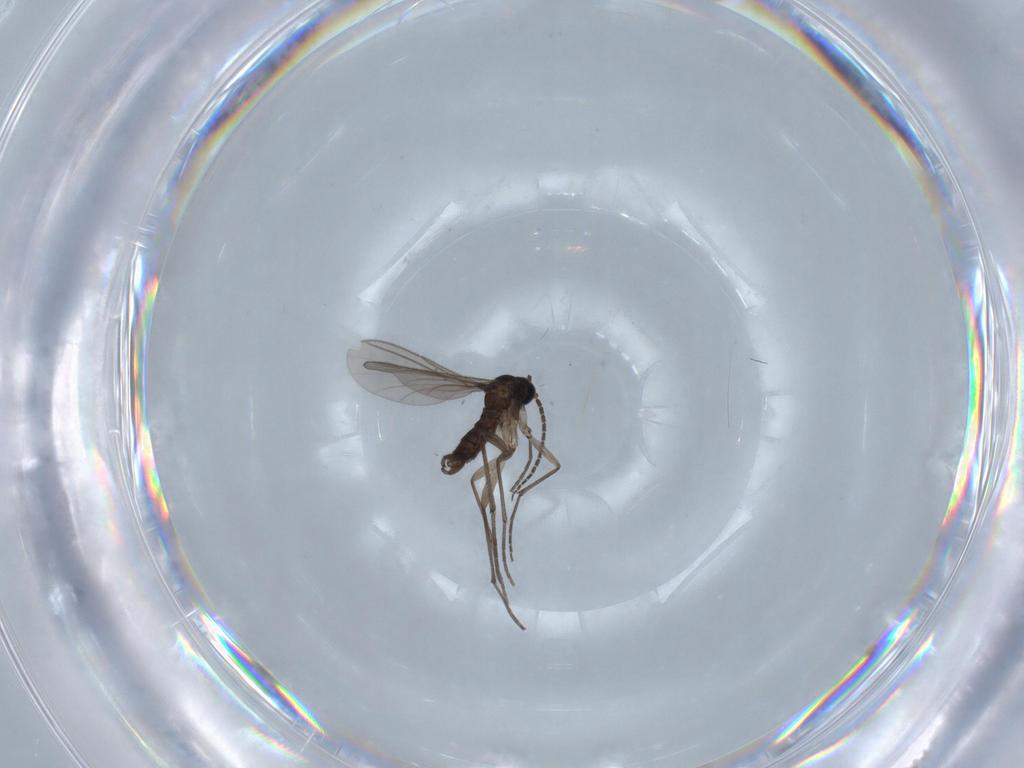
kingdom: Animalia
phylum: Arthropoda
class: Insecta
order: Diptera
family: Sciaridae
